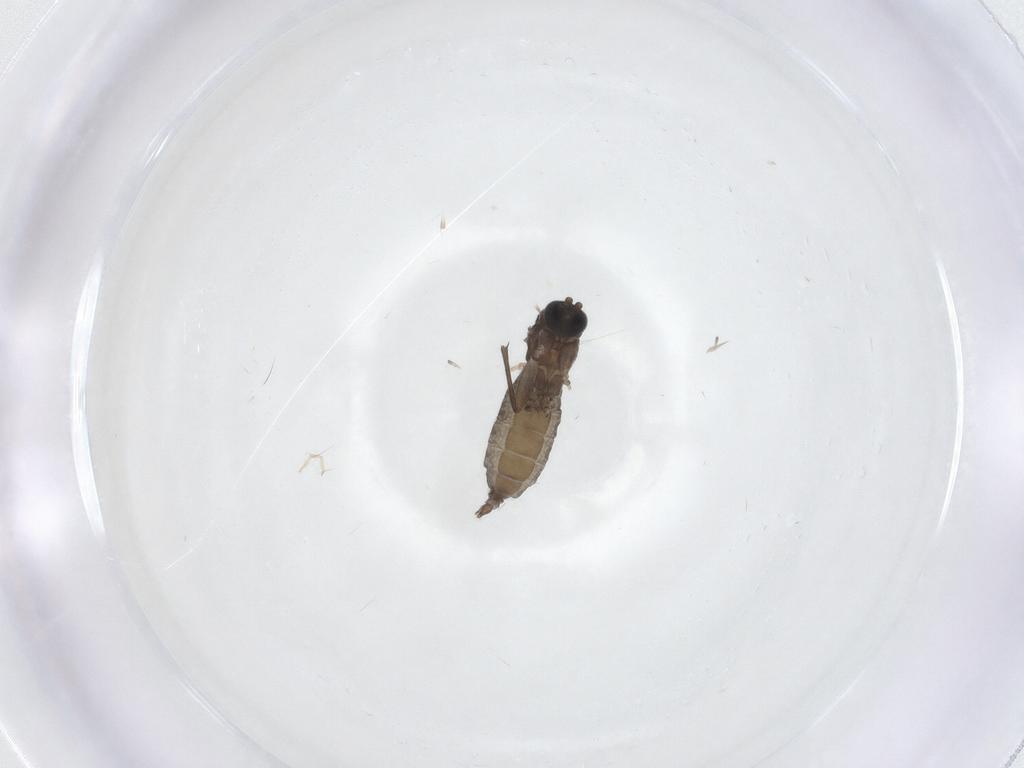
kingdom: Animalia
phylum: Arthropoda
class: Insecta
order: Diptera
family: Sciaridae
